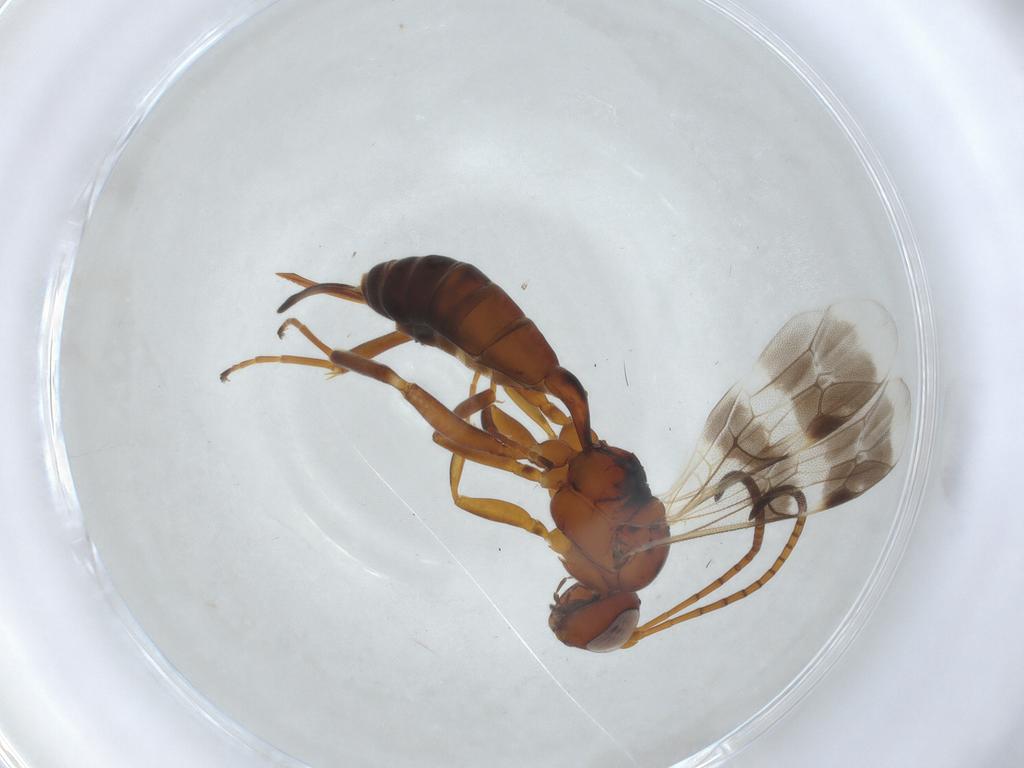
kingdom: Animalia
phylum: Arthropoda
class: Insecta
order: Hymenoptera
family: Ichneumonidae
